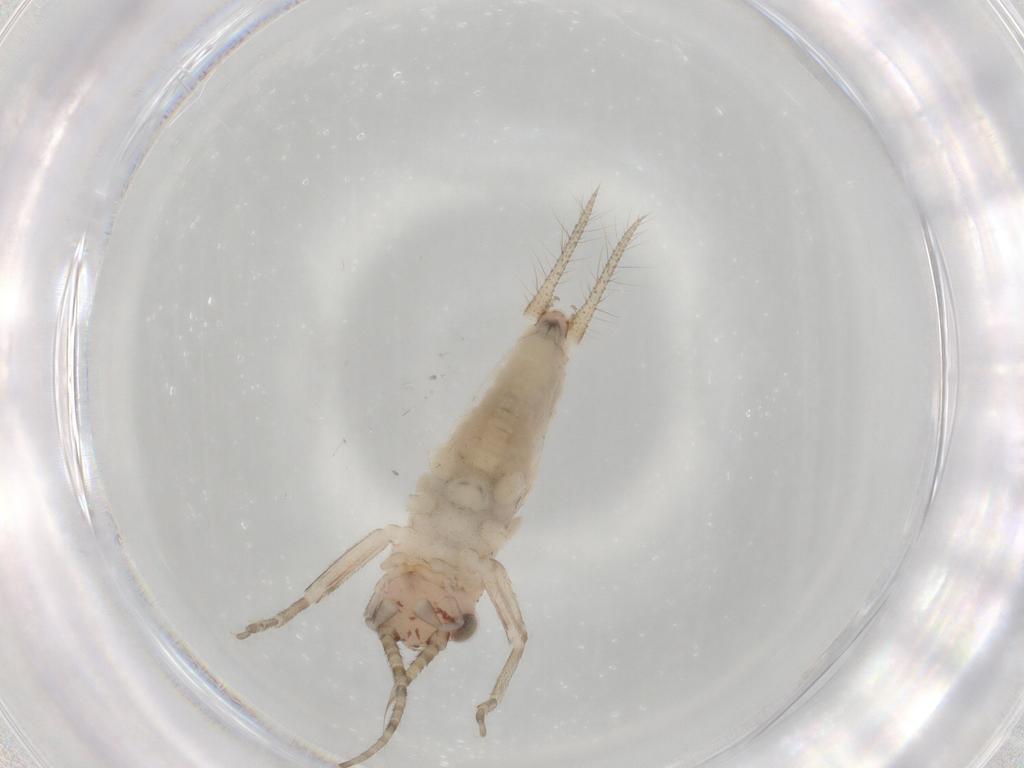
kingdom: Animalia
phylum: Arthropoda
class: Insecta
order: Orthoptera
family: Trigonidiidae
